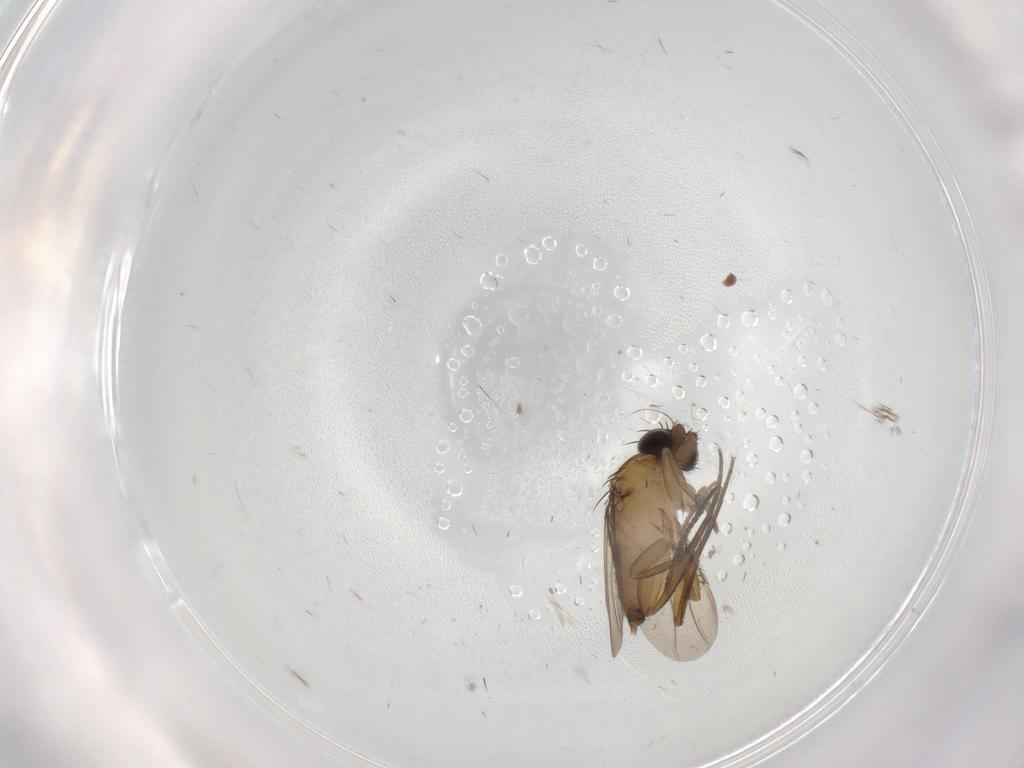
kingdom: Animalia
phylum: Arthropoda
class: Insecta
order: Diptera
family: Phoridae
